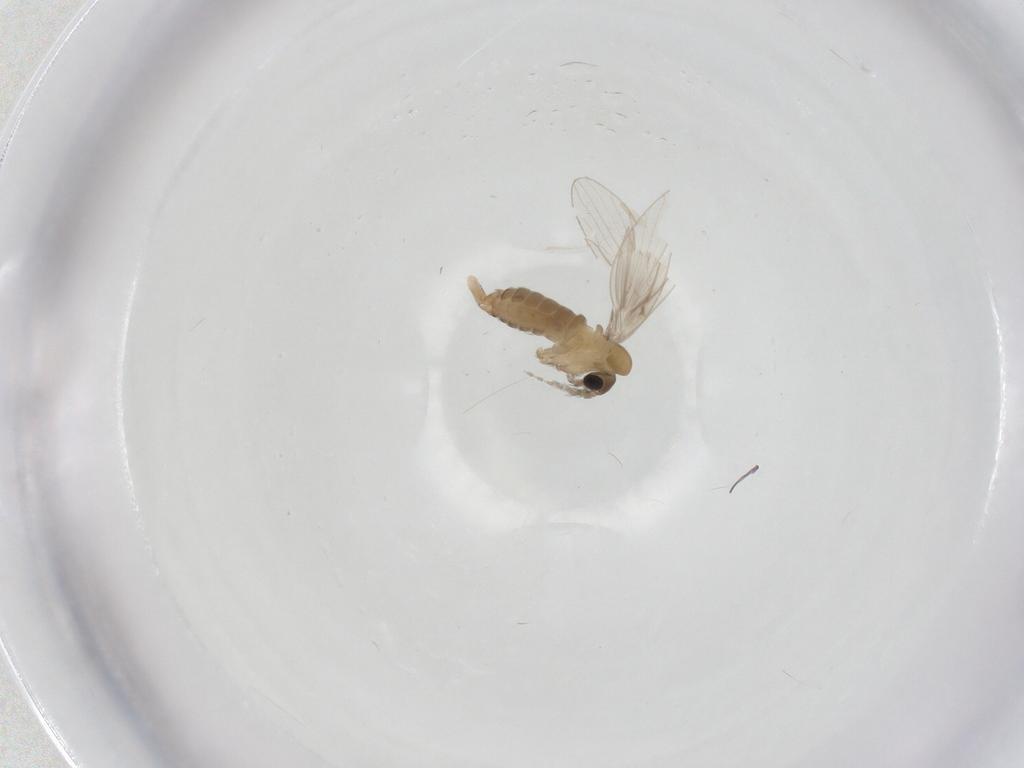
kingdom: Animalia
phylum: Arthropoda
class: Insecta
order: Diptera
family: Psychodidae
